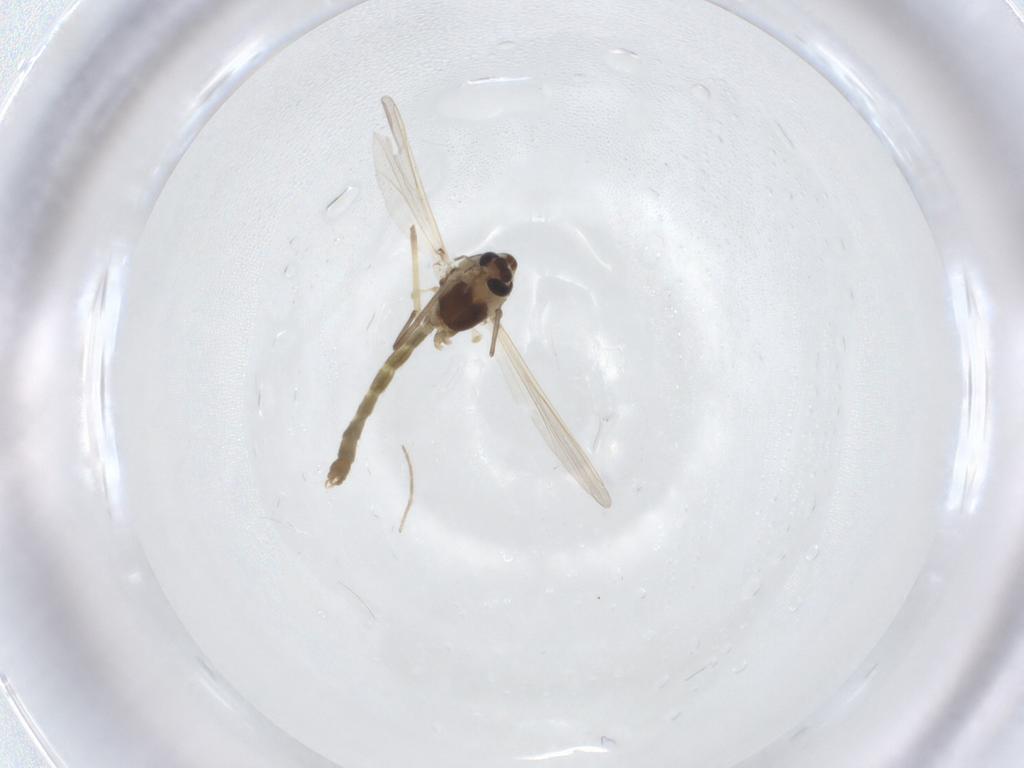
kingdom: Animalia
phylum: Arthropoda
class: Insecta
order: Diptera
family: Chironomidae
